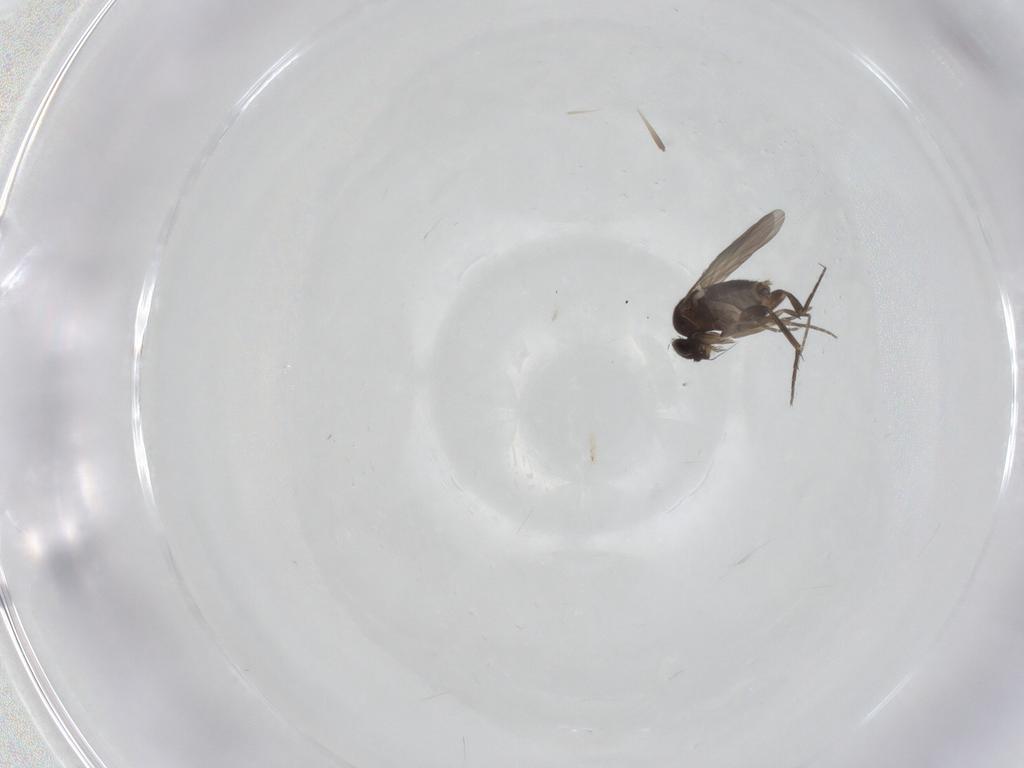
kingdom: Animalia
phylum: Arthropoda
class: Insecta
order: Diptera
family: Phoridae
